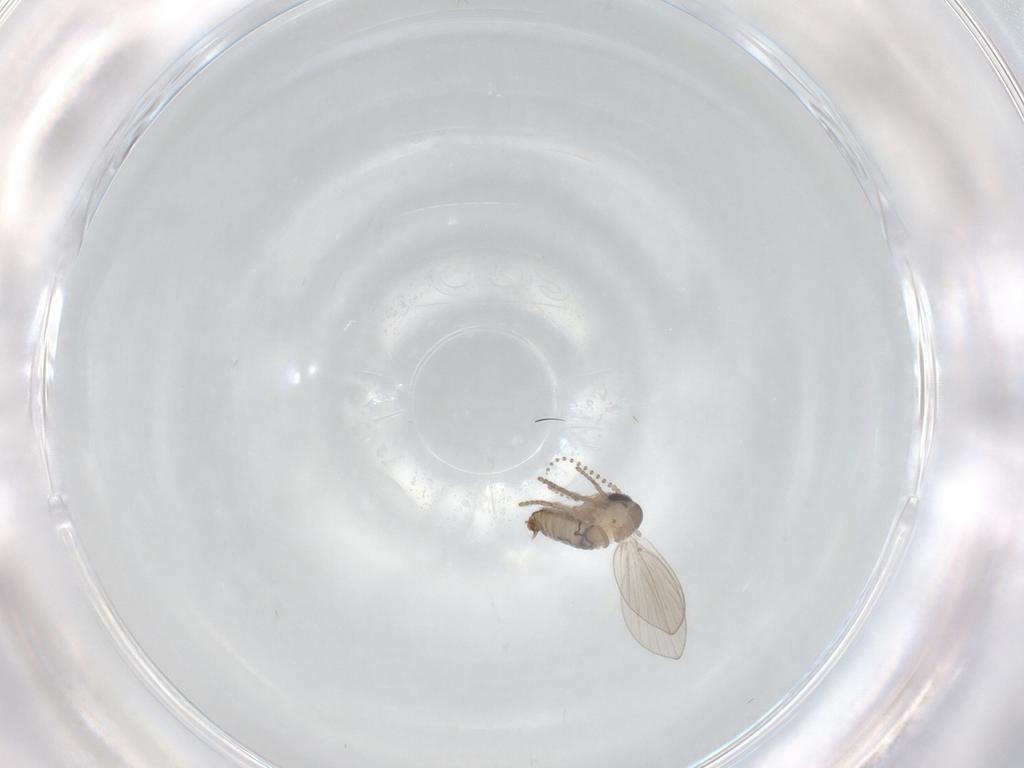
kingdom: Animalia
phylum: Arthropoda
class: Insecta
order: Diptera
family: Psychodidae
